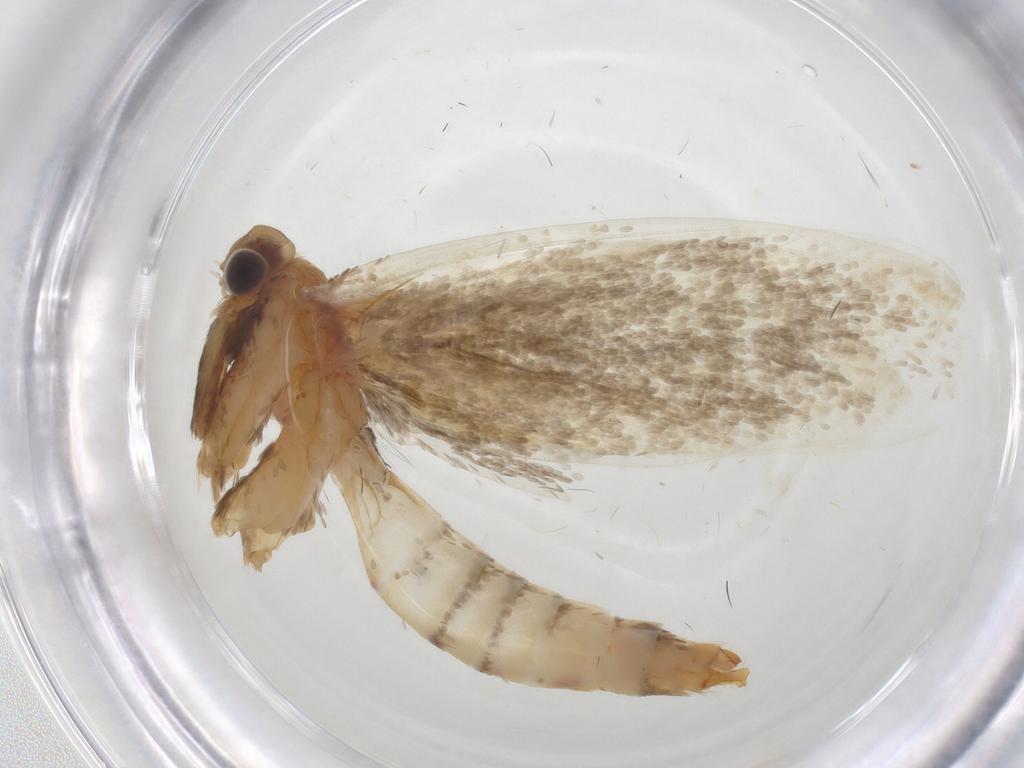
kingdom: Animalia
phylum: Arthropoda
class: Insecta
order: Lepidoptera
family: Tineidae
